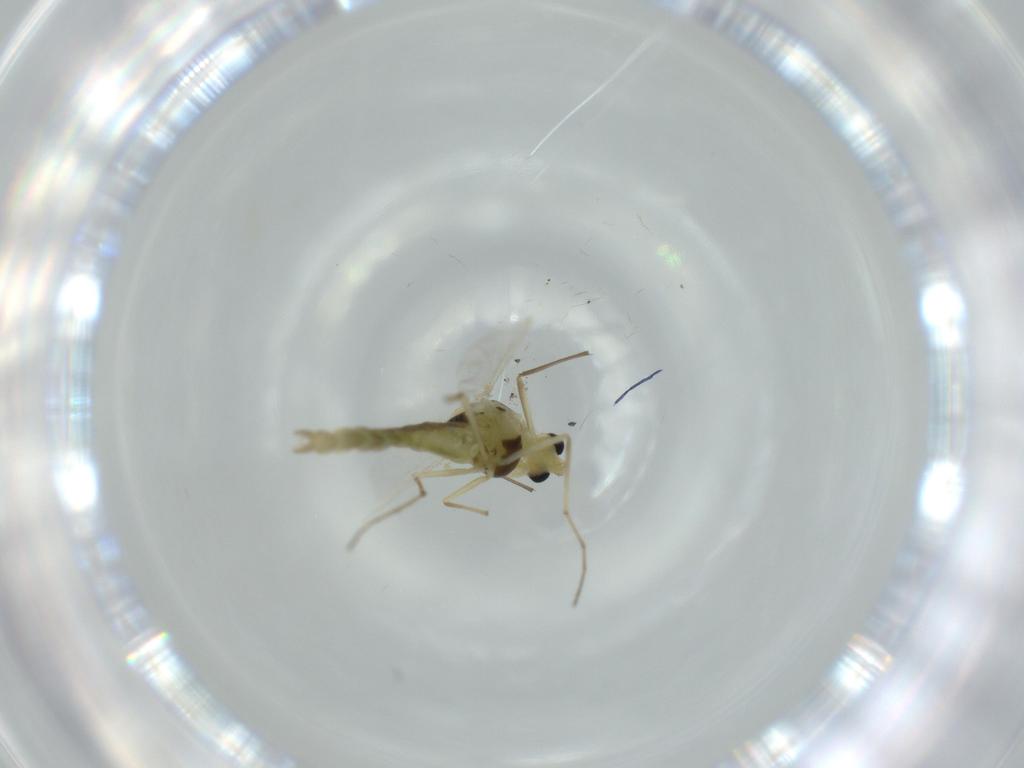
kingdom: Animalia
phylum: Arthropoda
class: Insecta
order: Diptera
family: Chironomidae
